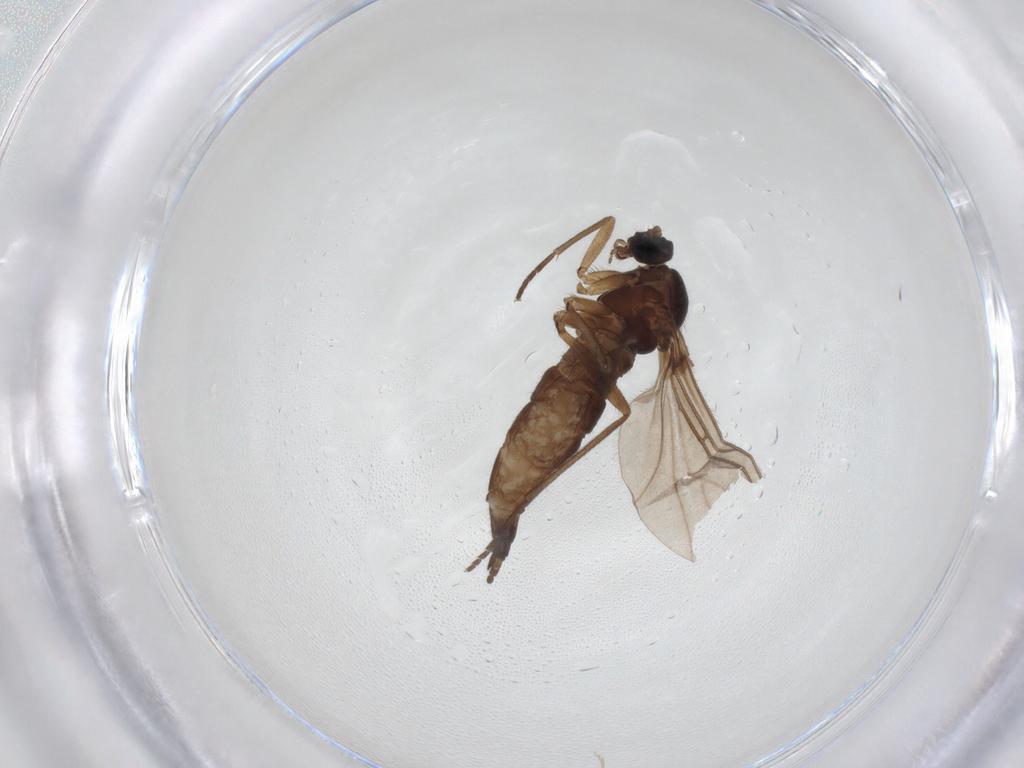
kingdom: Animalia
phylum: Arthropoda
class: Insecta
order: Diptera
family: Sciaridae
